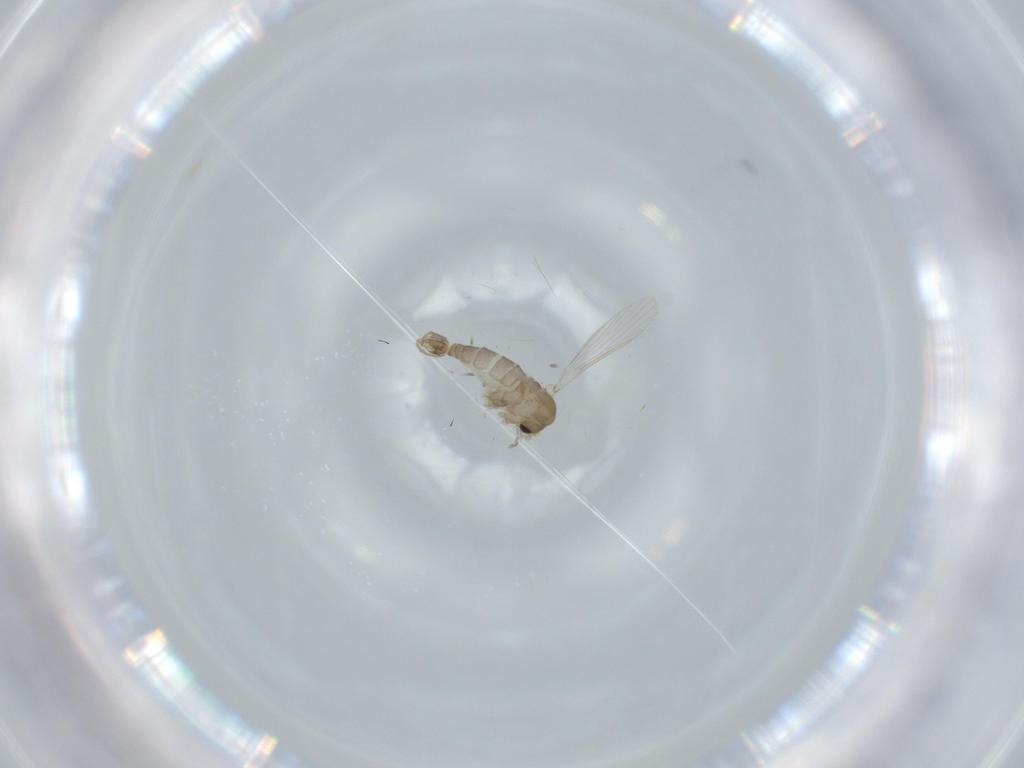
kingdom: Animalia
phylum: Arthropoda
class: Insecta
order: Diptera
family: Psychodidae
